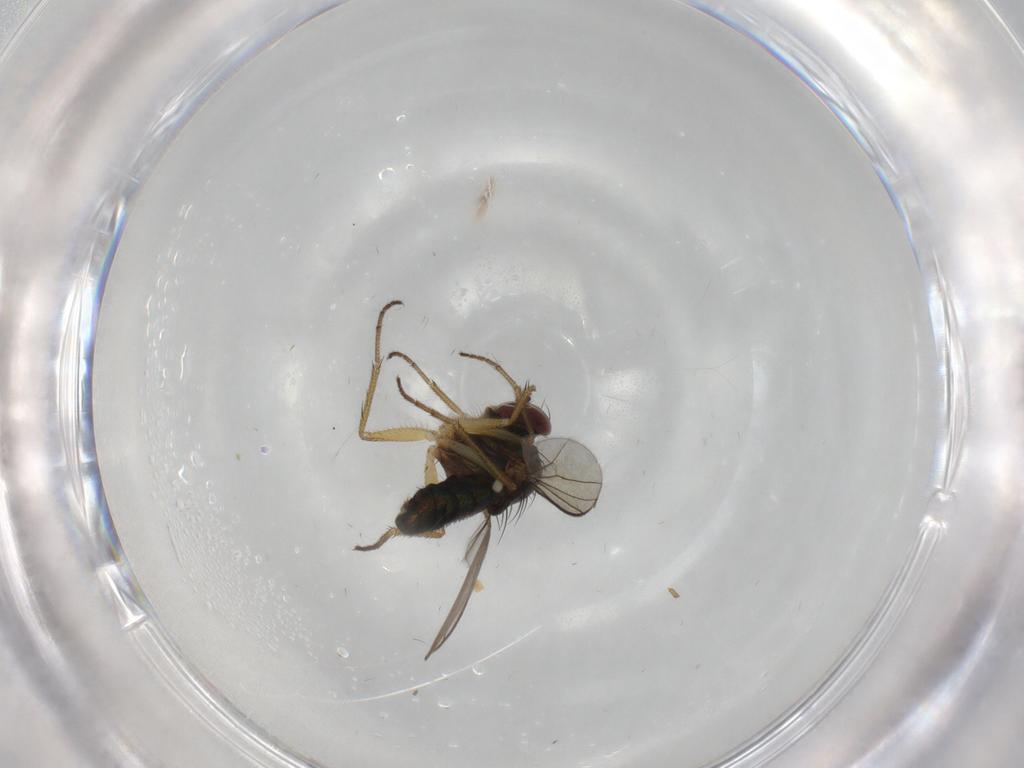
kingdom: Animalia
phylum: Arthropoda
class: Insecta
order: Diptera
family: Dolichopodidae
